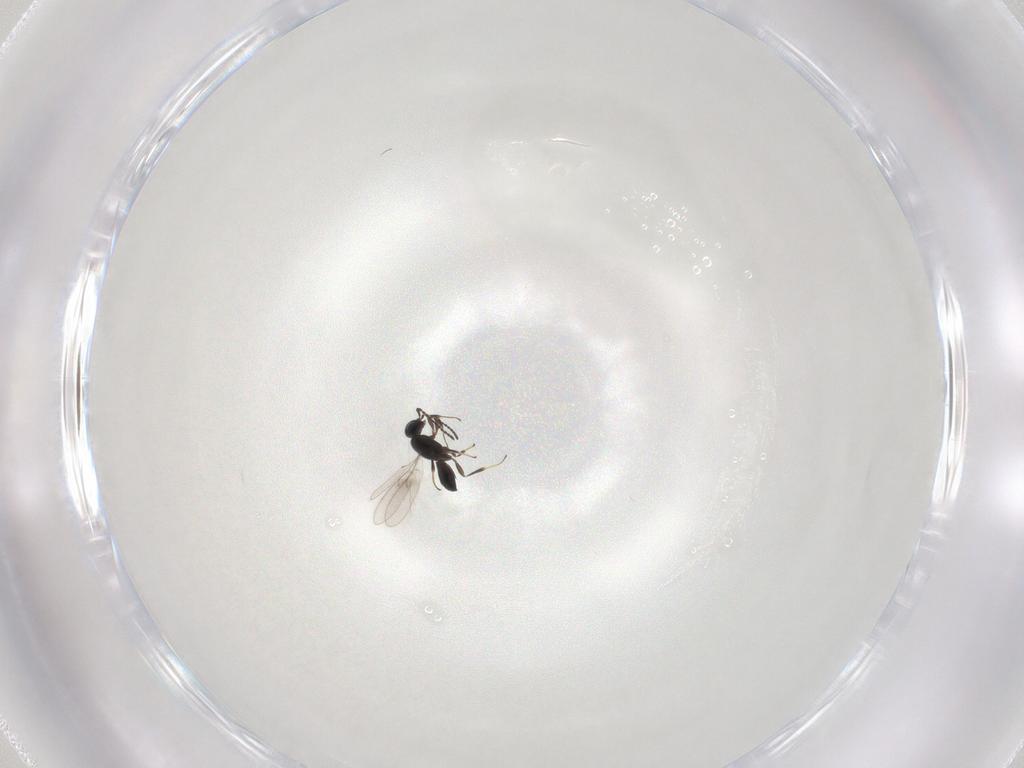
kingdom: Animalia
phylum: Arthropoda
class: Insecta
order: Hymenoptera
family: Scelionidae
